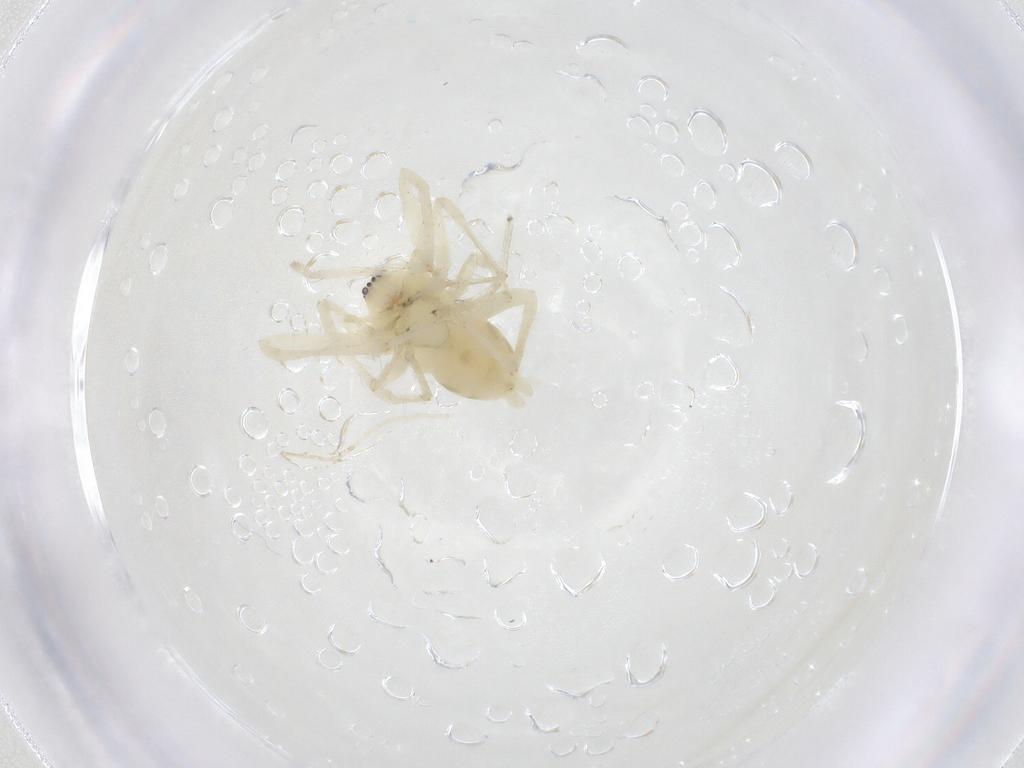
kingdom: Animalia
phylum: Arthropoda
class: Arachnida
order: Araneae
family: Anyphaenidae
